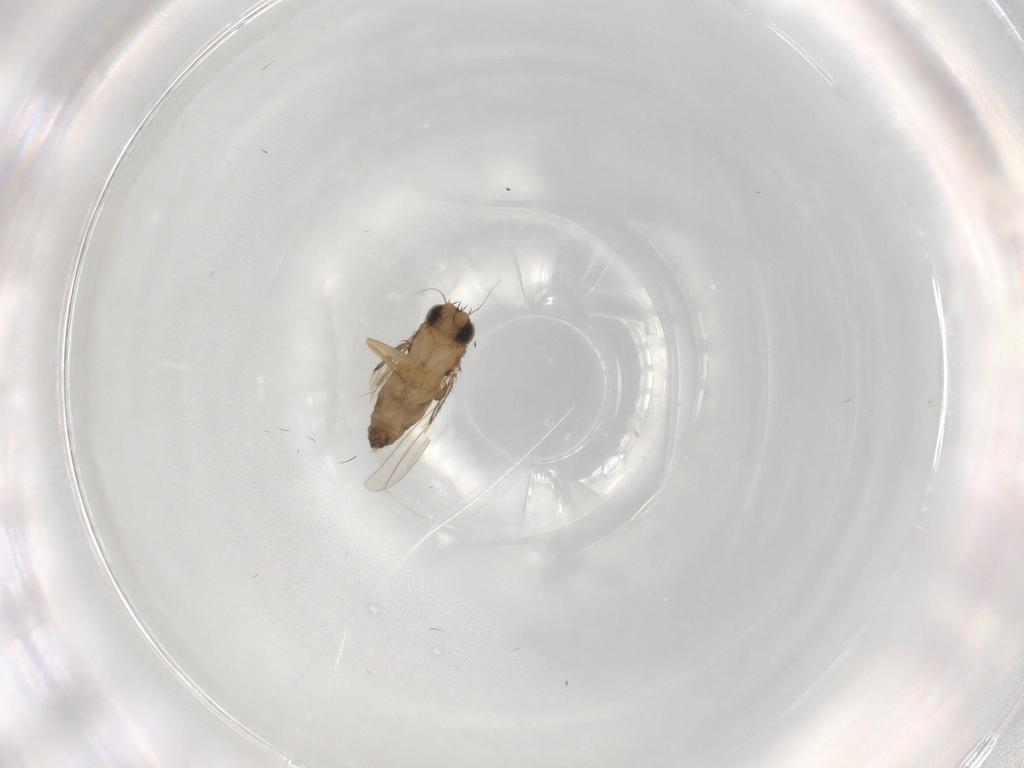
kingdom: Animalia
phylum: Arthropoda
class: Insecta
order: Diptera
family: Phoridae
